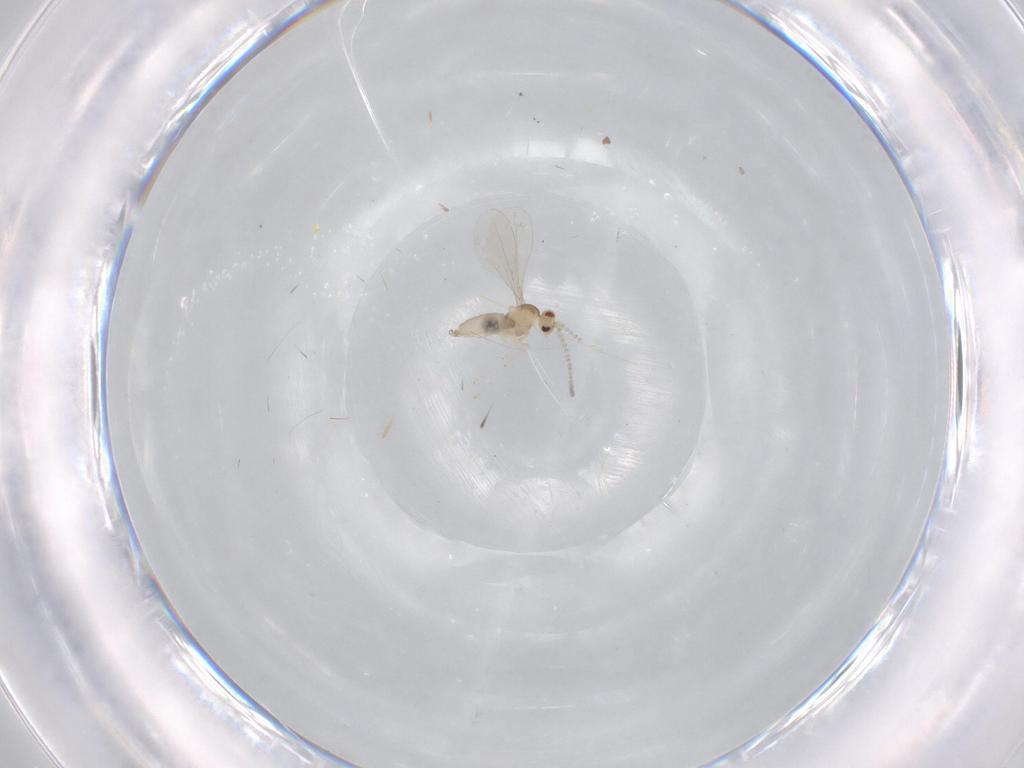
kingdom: Animalia
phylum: Arthropoda
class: Insecta
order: Diptera
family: Cecidomyiidae
